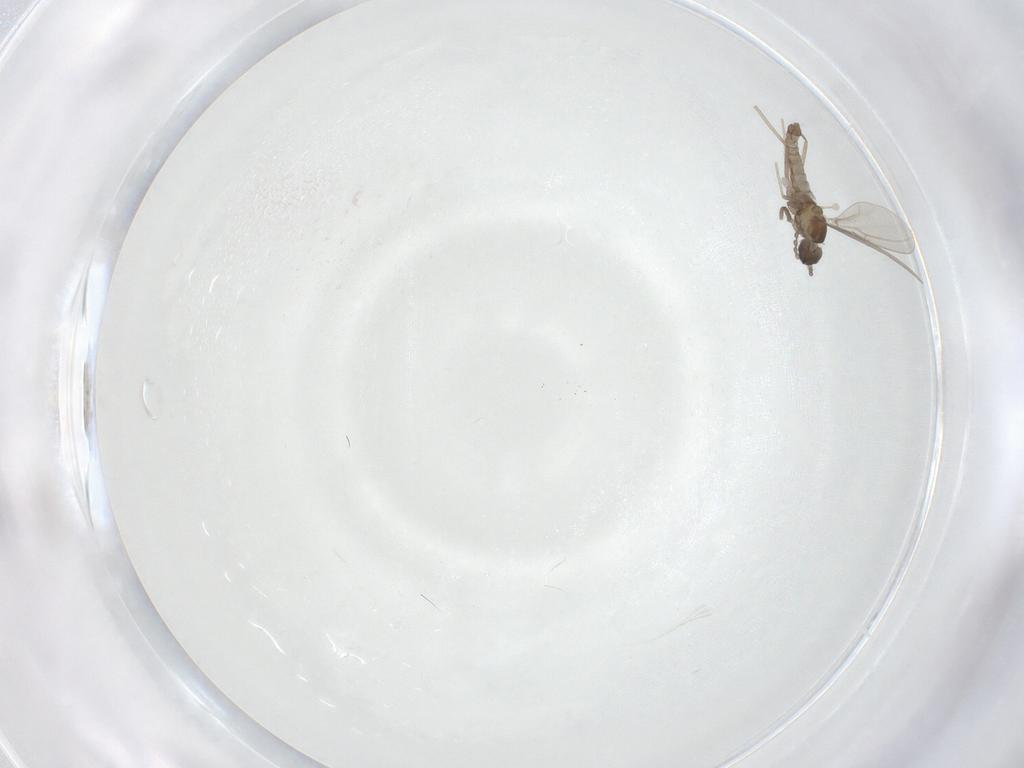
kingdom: Animalia
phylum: Arthropoda
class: Insecta
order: Diptera
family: Cecidomyiidae
